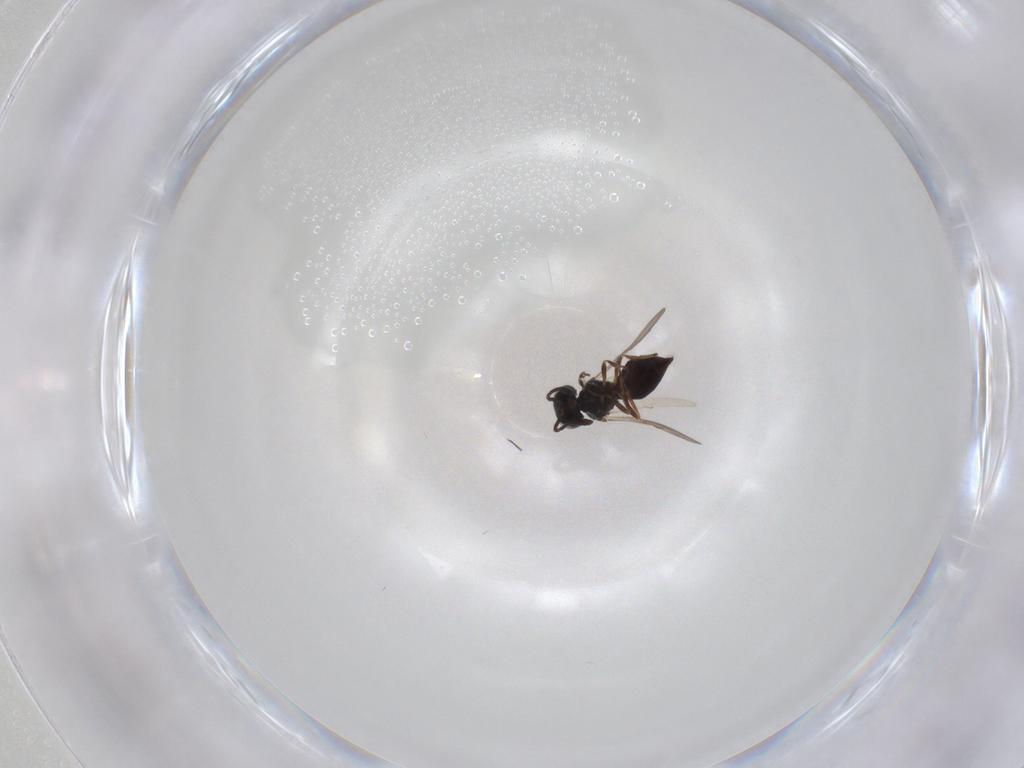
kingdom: Animalia
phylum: Arthropoda
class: Insecta
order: Hymenoptera
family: Scelionidae
